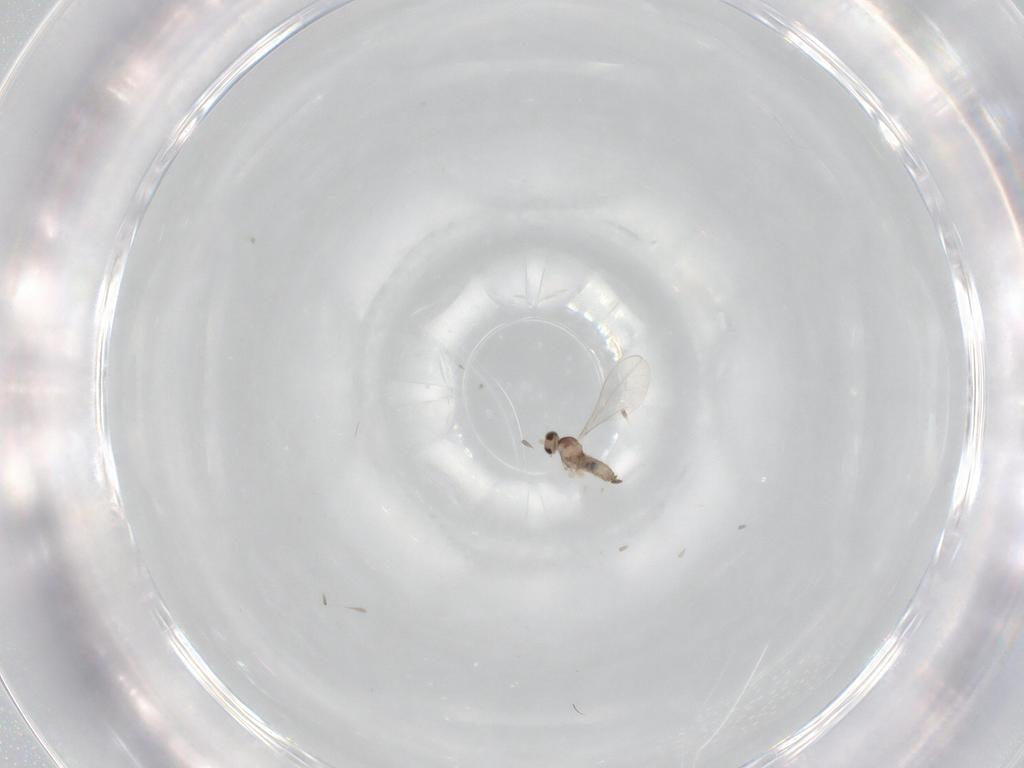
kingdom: Animalia
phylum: Arthropoda
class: Insecta
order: Diptera
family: Cecidomyiidae
